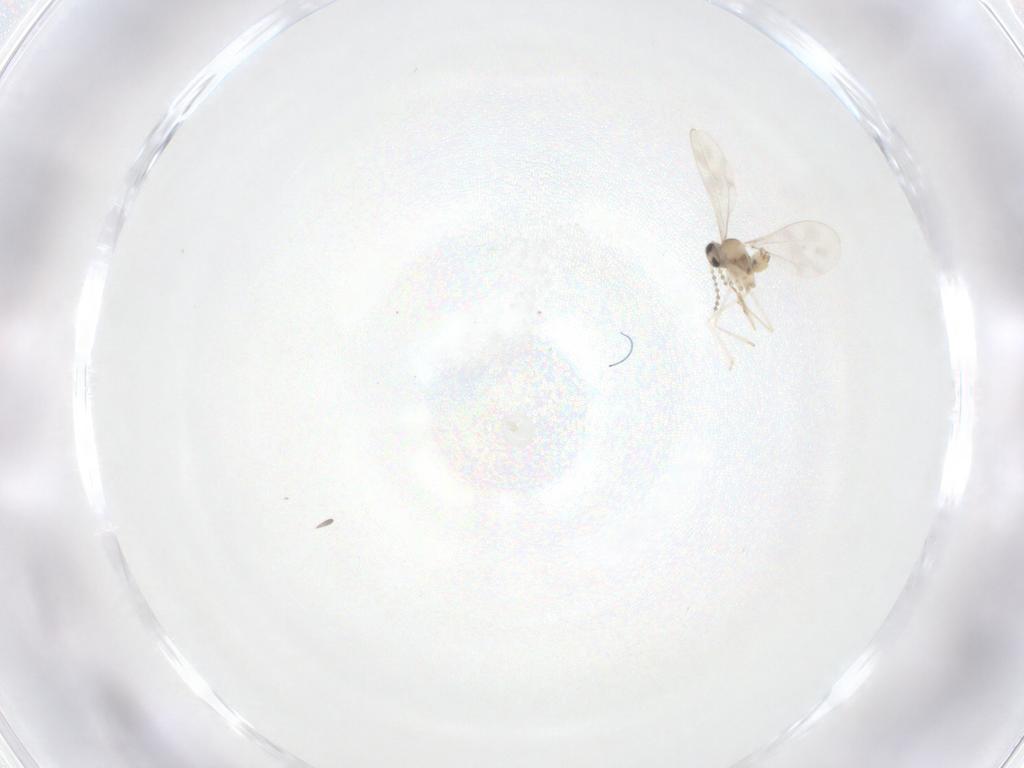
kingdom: Animalia
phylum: Arthropoda
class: Insecta
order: Diptera
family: Cecidomyiidae
